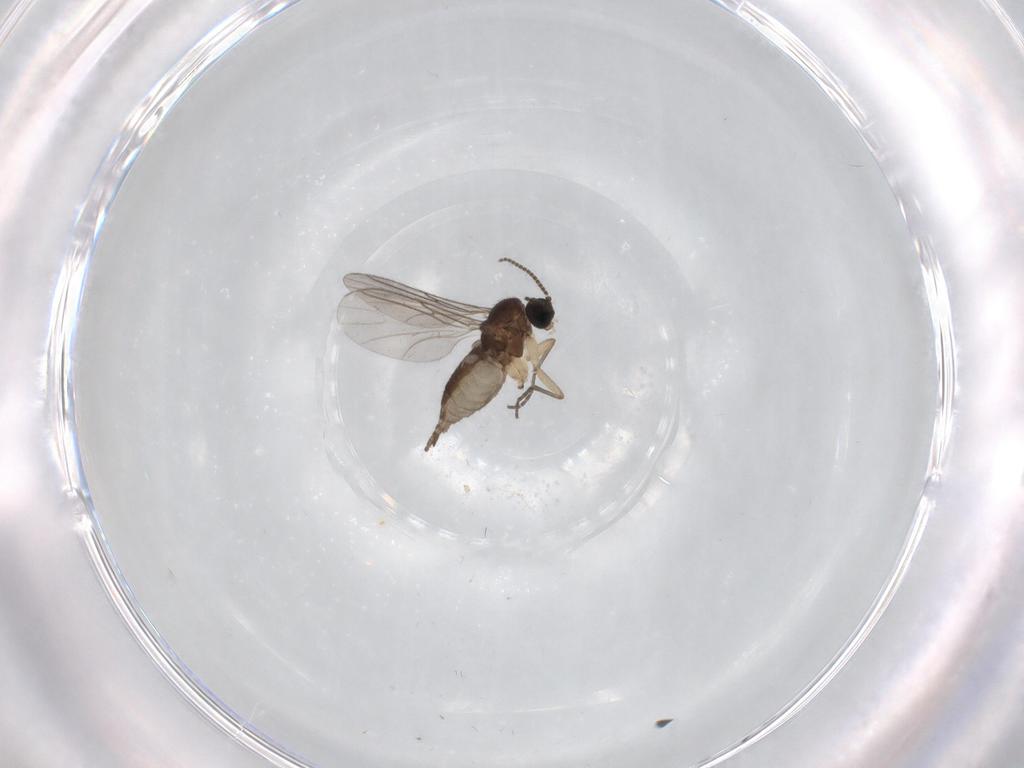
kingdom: Animalia
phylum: Arthropoda
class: Insecta
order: Diptera
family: Sciaridae
